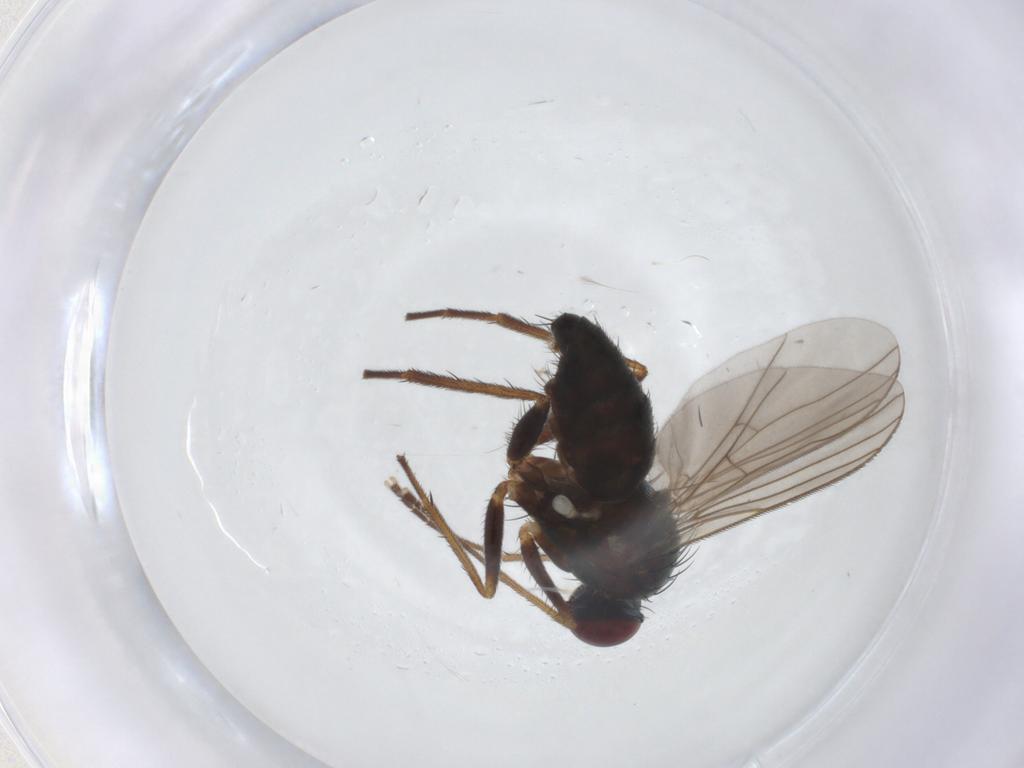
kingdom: Animalia
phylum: Arthropoda
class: Insecta
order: Diptera
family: Dolichopodidae
